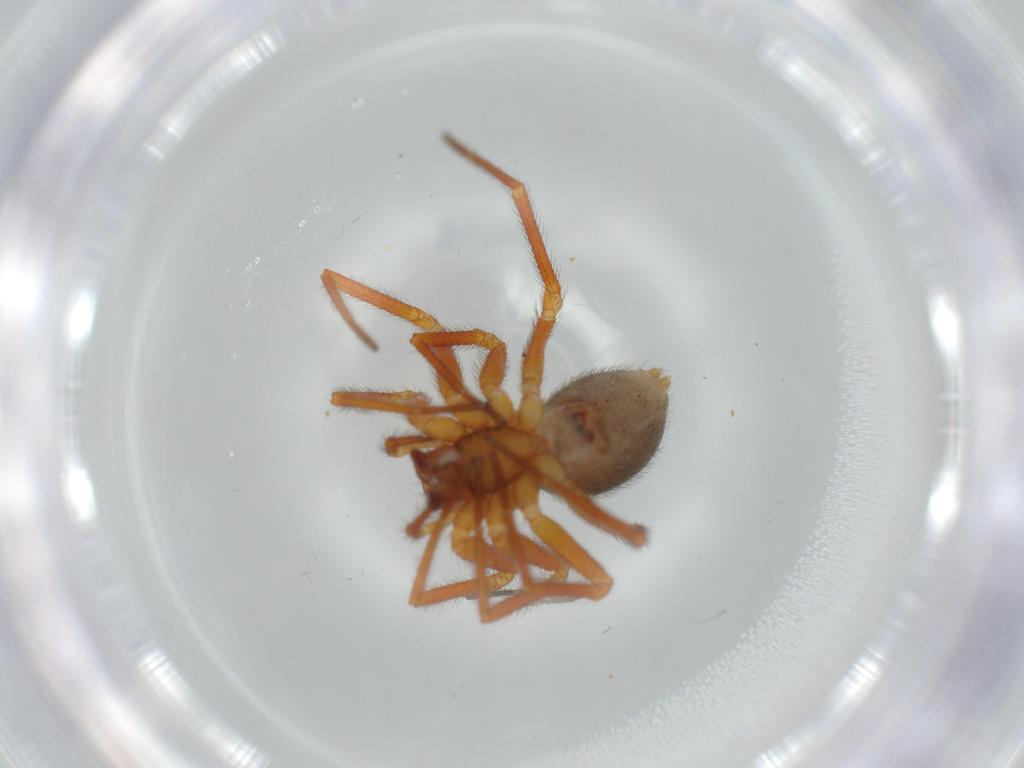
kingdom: Animalia
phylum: Arthropoda
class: Arachnida
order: Araneae
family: Linyphiidae
